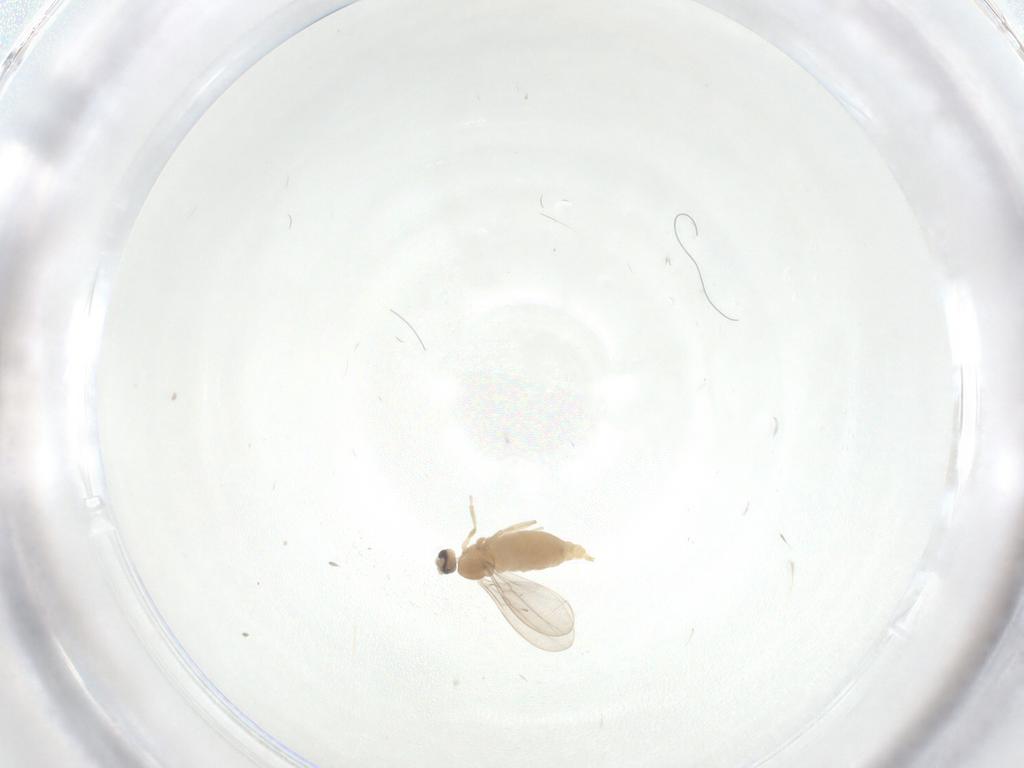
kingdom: Animalia
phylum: Arthropoda
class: Insecta
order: Diptera
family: Cecidomyiidae
